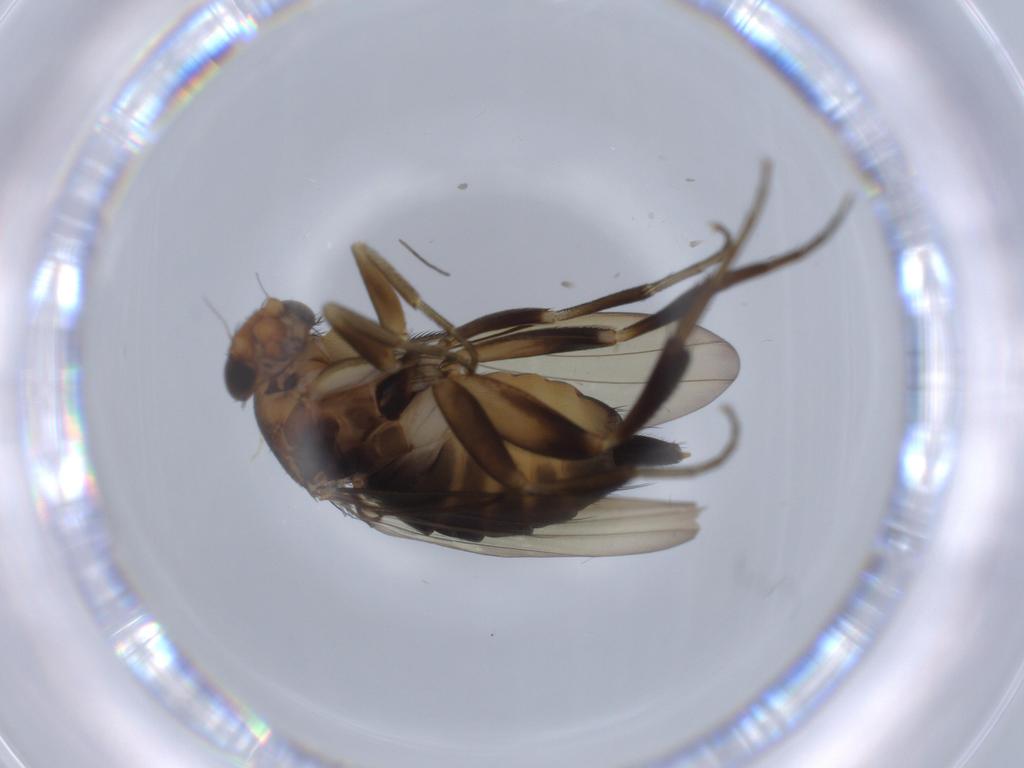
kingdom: Animalia
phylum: Arthropoda
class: Insecta
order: Diptera
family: Phoridae
